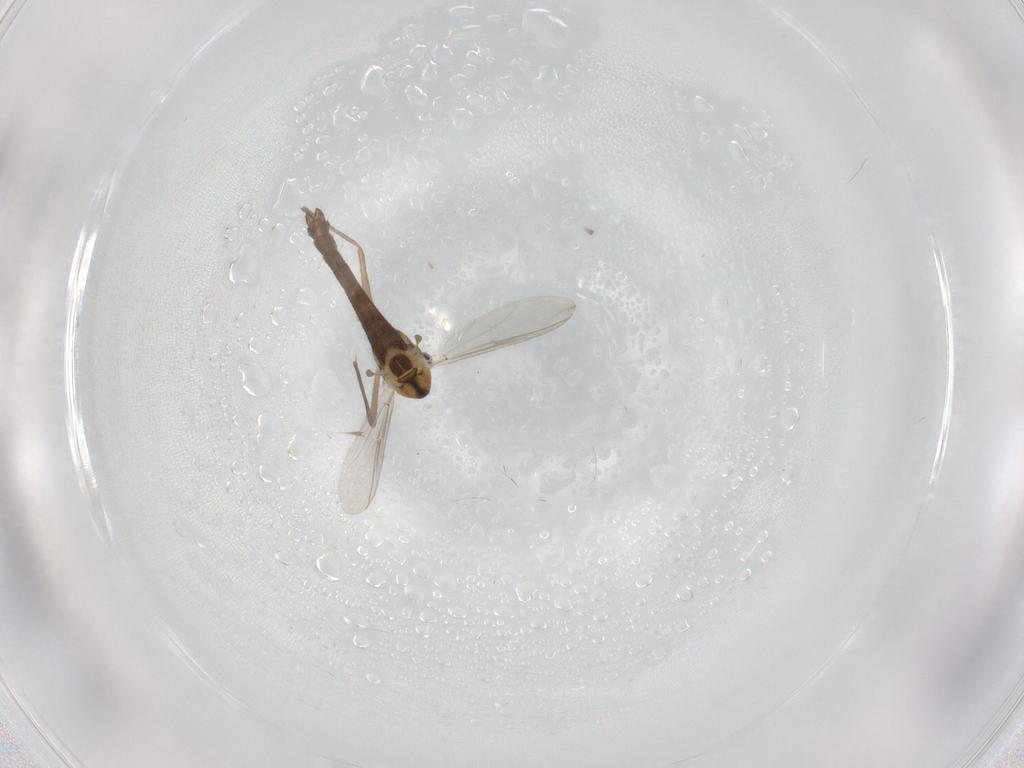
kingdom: Animalia
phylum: Arthropoda
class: Insecta
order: Diptera
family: Chironomidae
